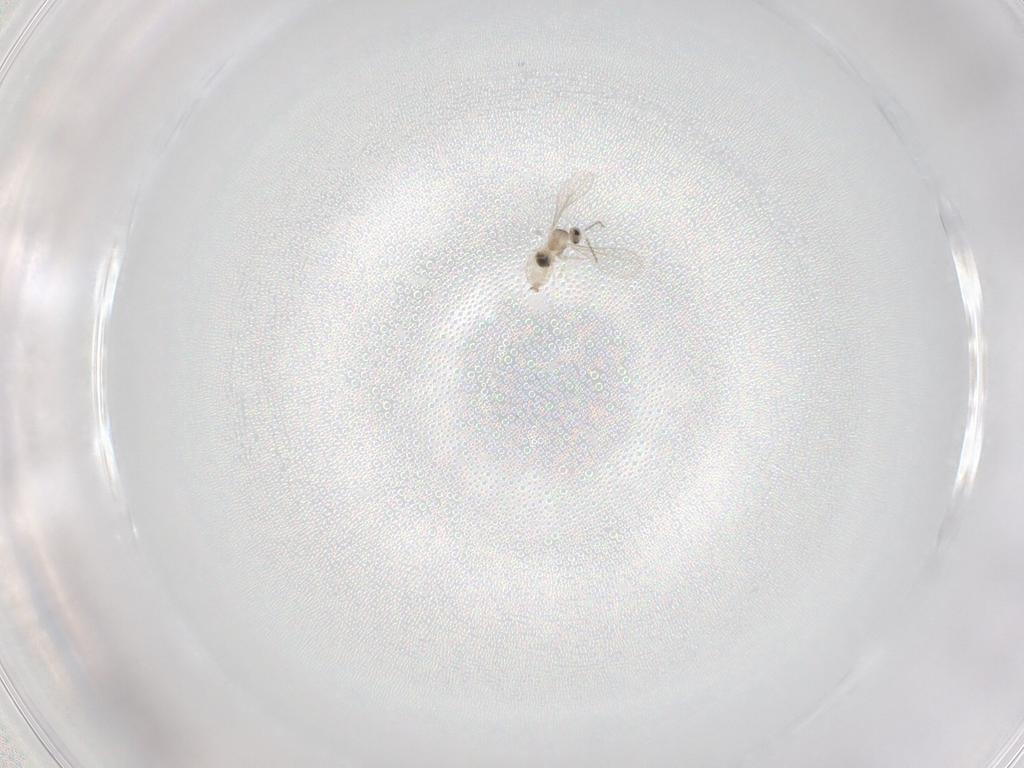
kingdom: Animalia
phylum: Arthropoda
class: Insecta
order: Diptera
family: Cecidomyiidae
